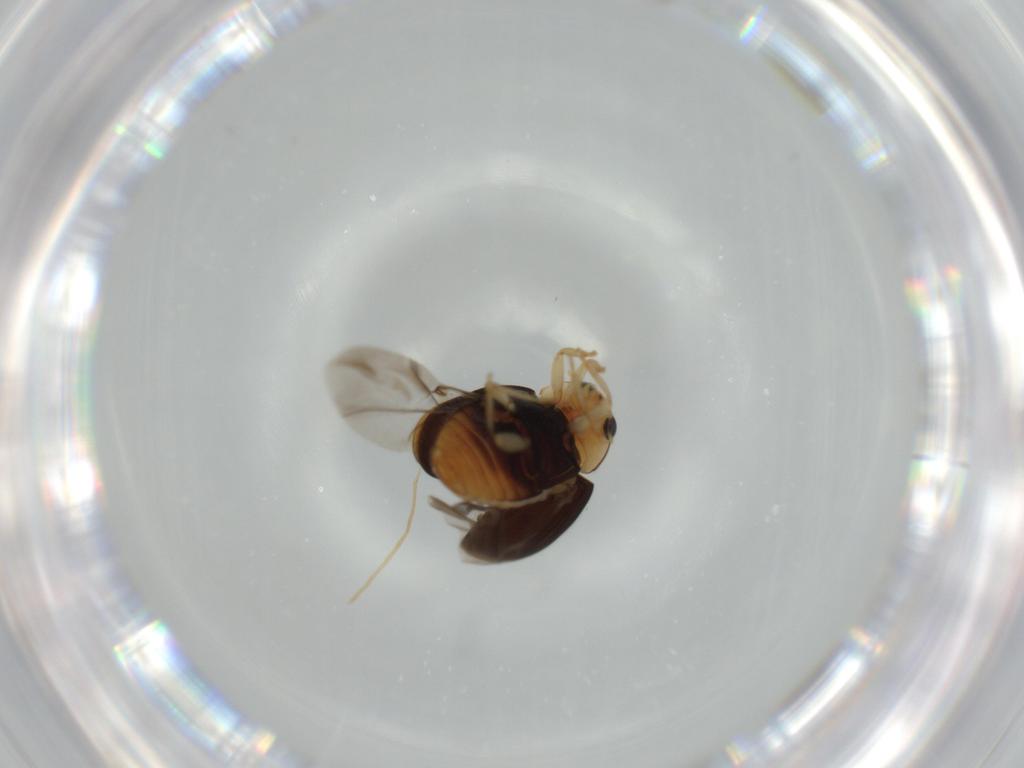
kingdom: Animalia
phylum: Arthropoda
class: Insecta
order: Coleoptera
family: Chrysomelidae
